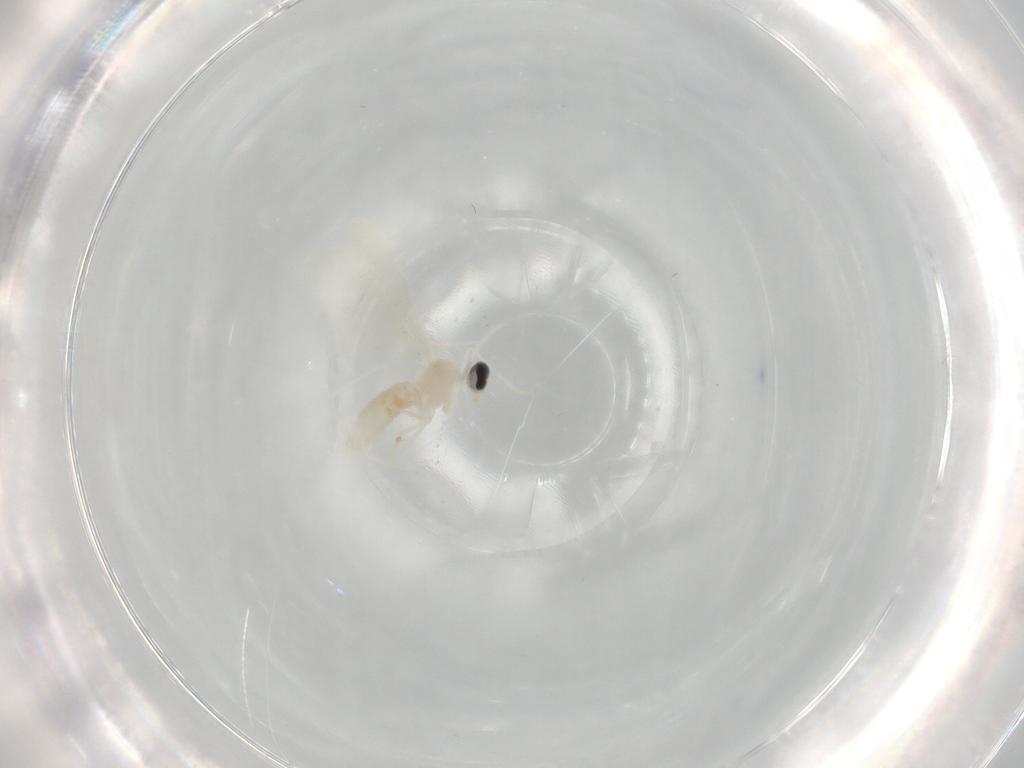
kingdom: Animalia
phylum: Arthropoda
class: Insecta
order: Diptera
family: Cecidomyiidae
